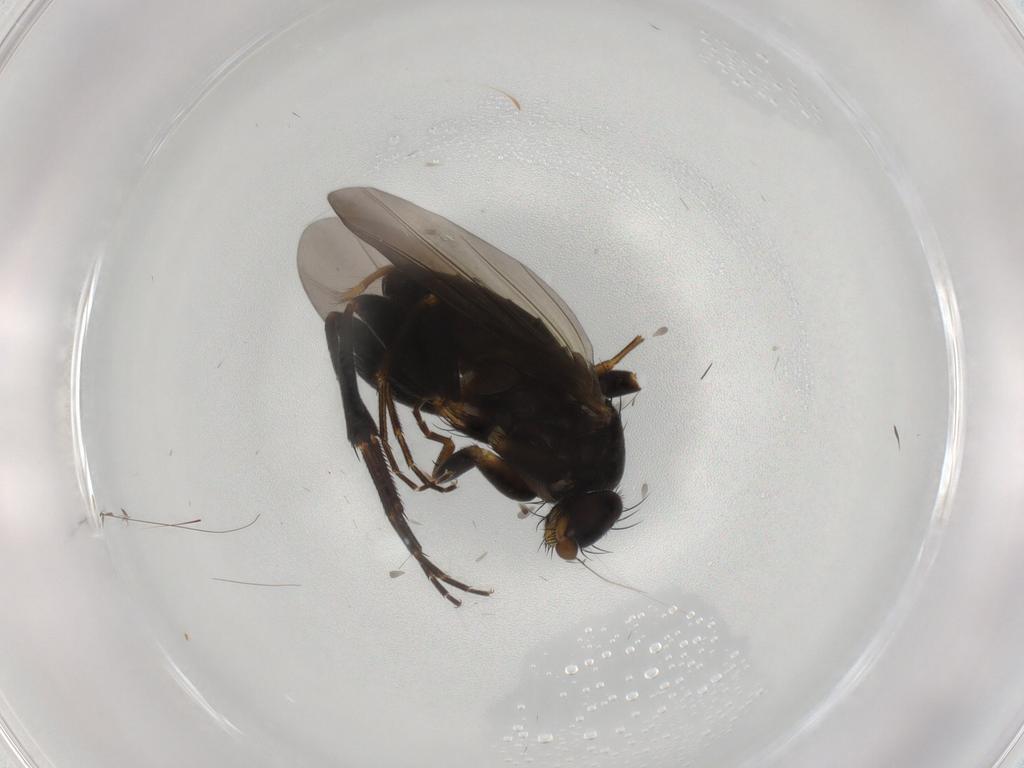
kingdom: Animalia
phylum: Arthropoda
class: Insecta
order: Diptera
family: Phoridae
